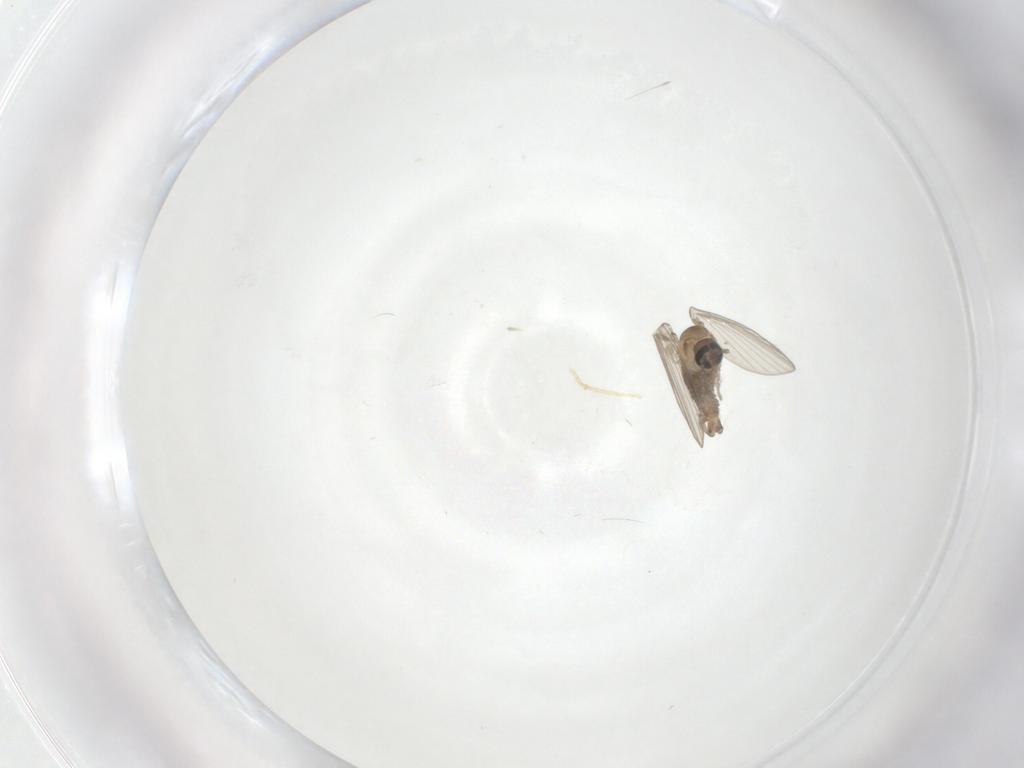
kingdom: Animalia
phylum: Arthropoda
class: Insecta
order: Diptera
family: Psychodidae
